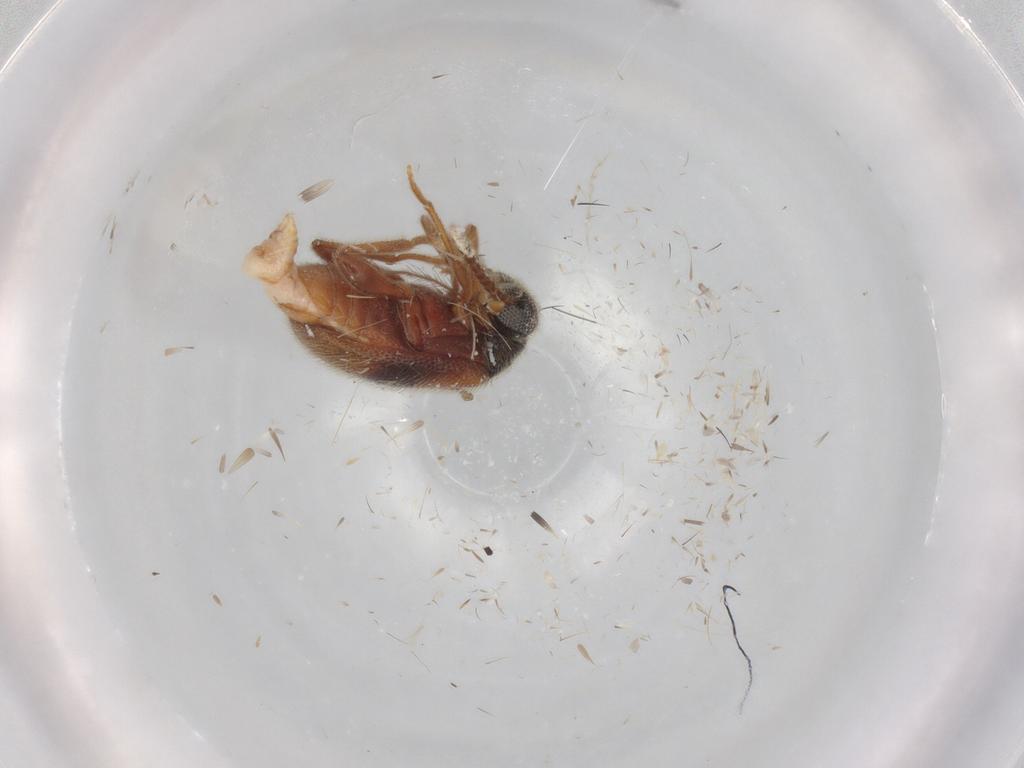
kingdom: Animalia
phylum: Arthropoda
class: Insecta
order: Coleoptera
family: Aderidae
